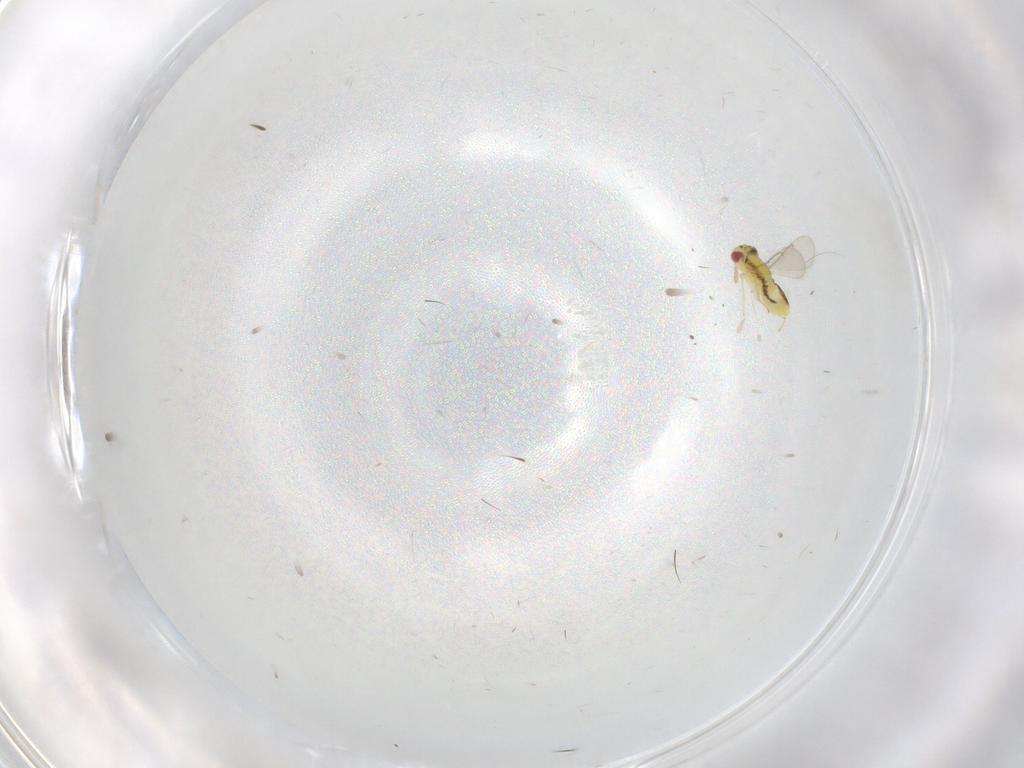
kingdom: Animalia
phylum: Arthropoda
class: Insecta
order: Hymenoptera
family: Aphelinidae
